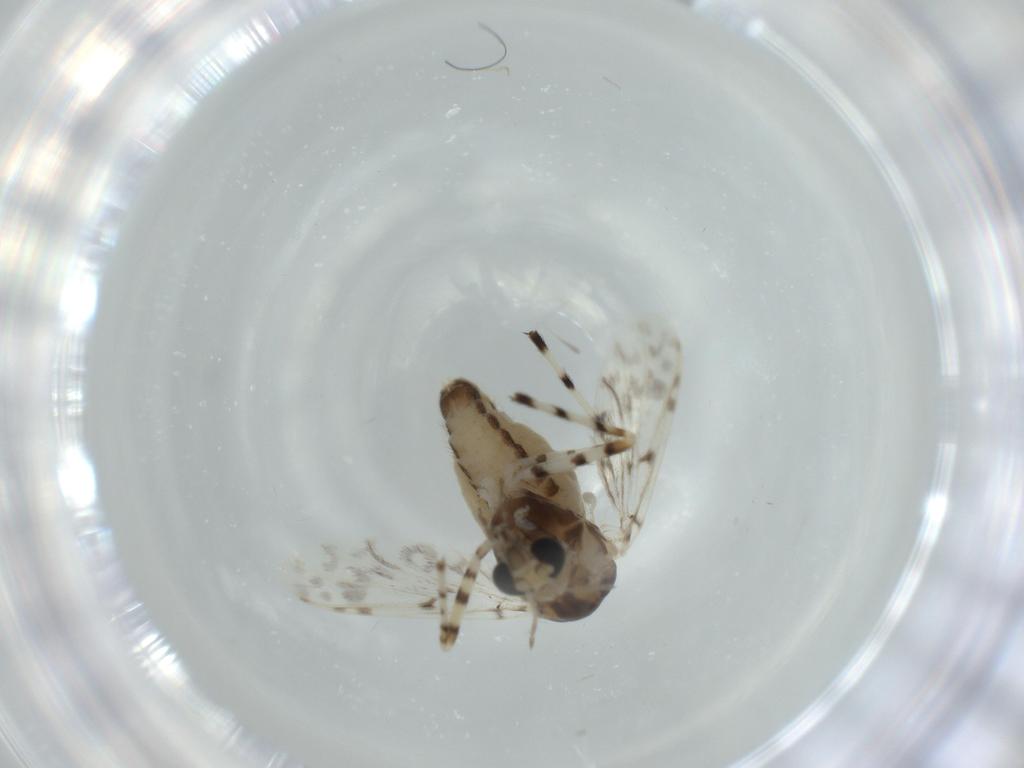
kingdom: Animalia
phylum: Arthropoda
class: Insecta
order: Diptera
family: Chironomidae
